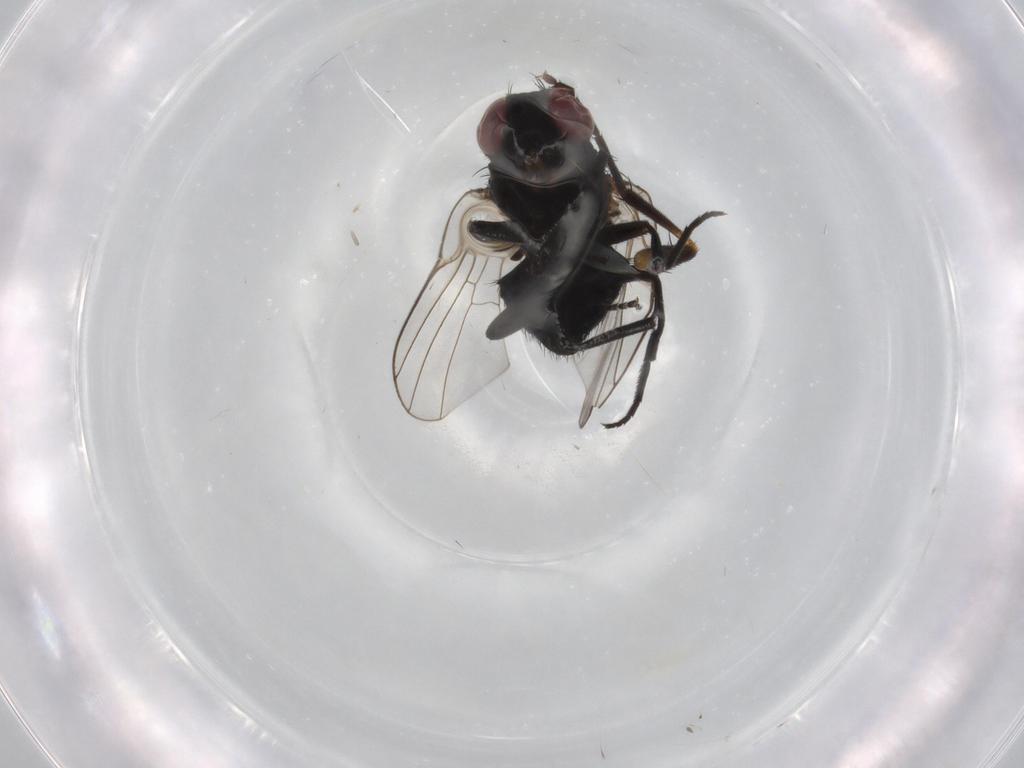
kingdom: Animalia
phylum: Arthropoda
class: Insecta
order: Diptera
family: Agromyzidae
